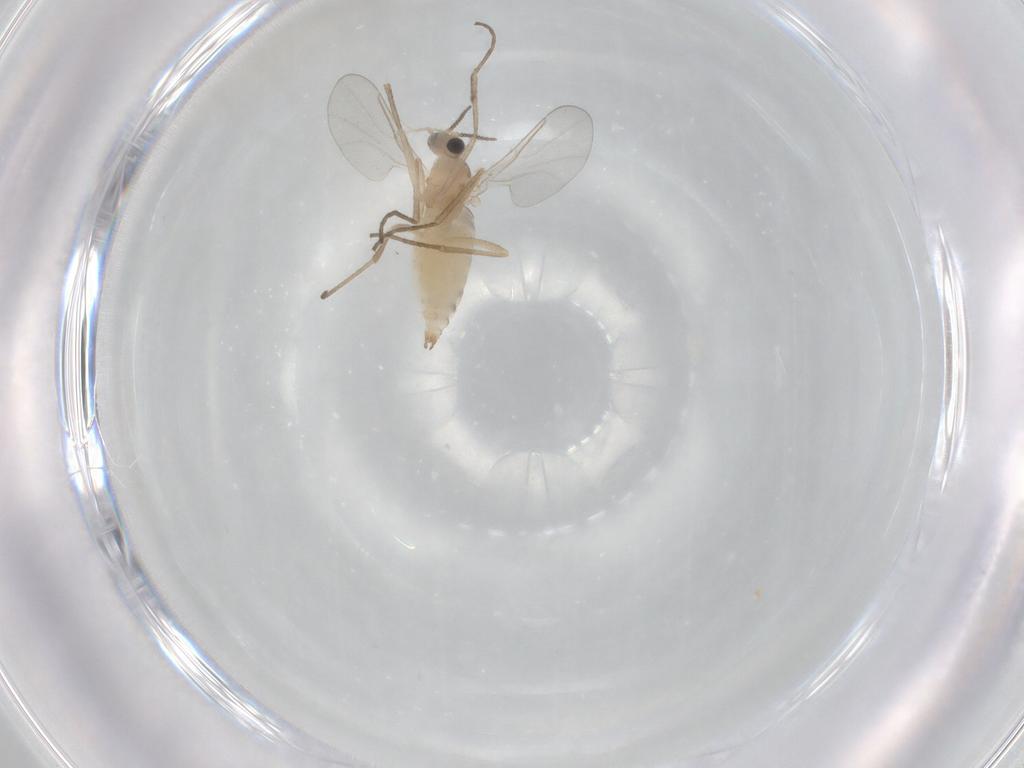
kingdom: Animalia
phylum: Arthropoda
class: Insecta
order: Diptera
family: Cecidomyiidae
